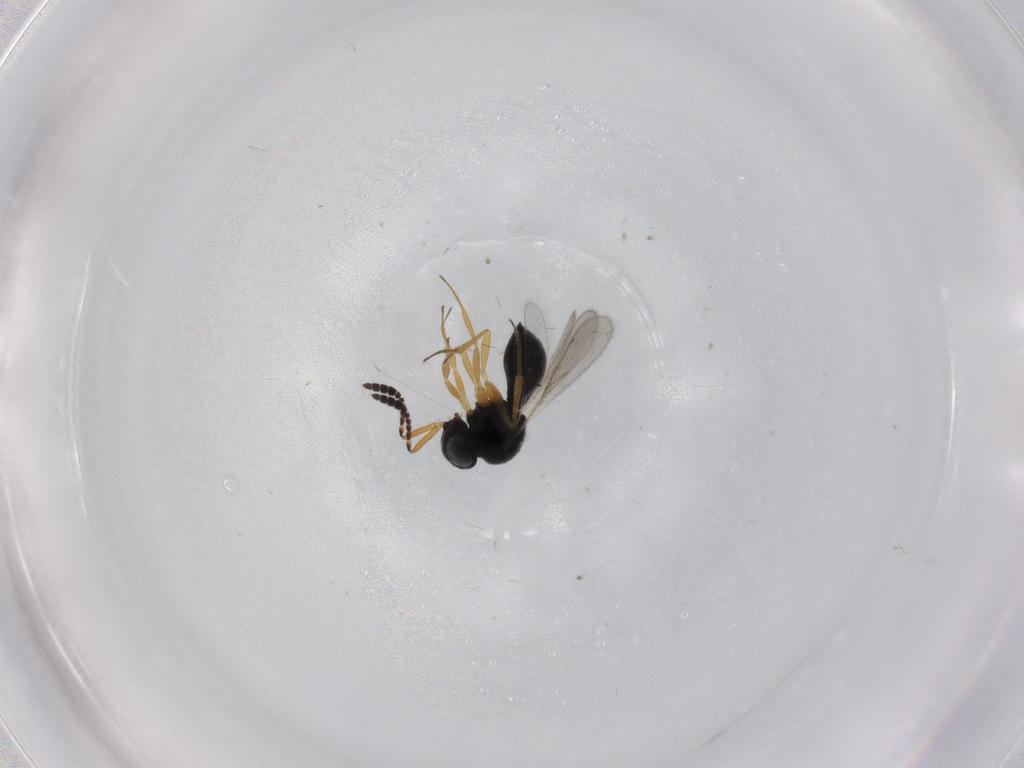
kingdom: Animalia
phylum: Arthropoda
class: Insecta
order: Hymenoptera
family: Scelionidae
